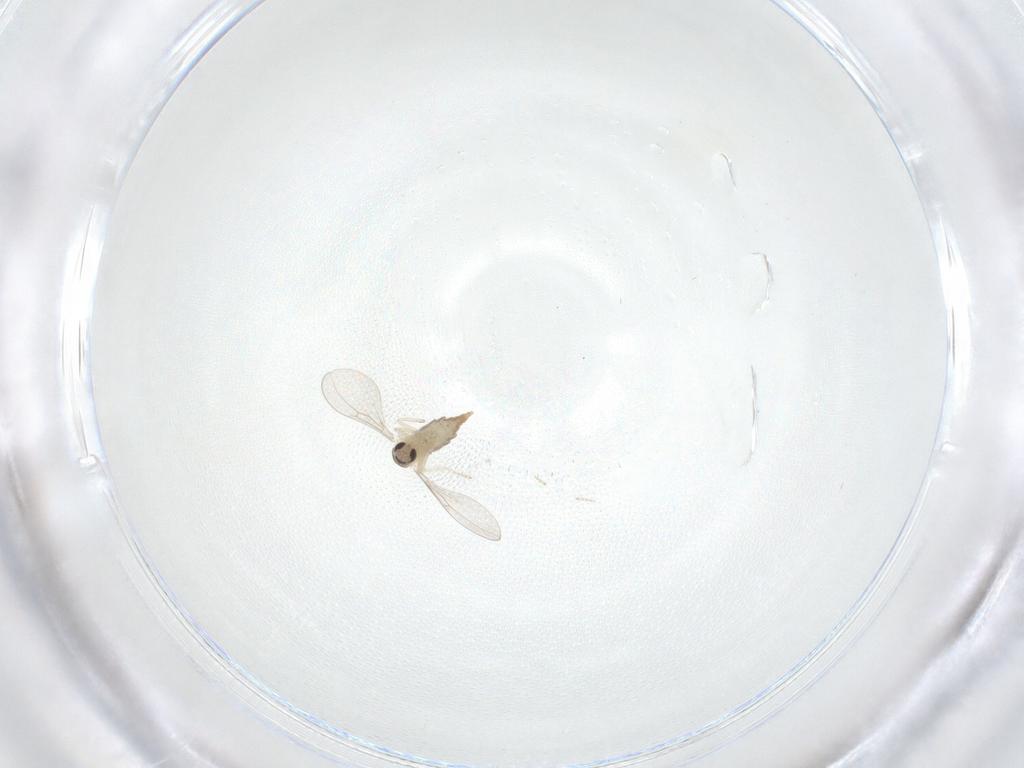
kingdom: Animalia
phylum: Arthropoda
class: Insecta
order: Diptera
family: Cecidomyiidae
